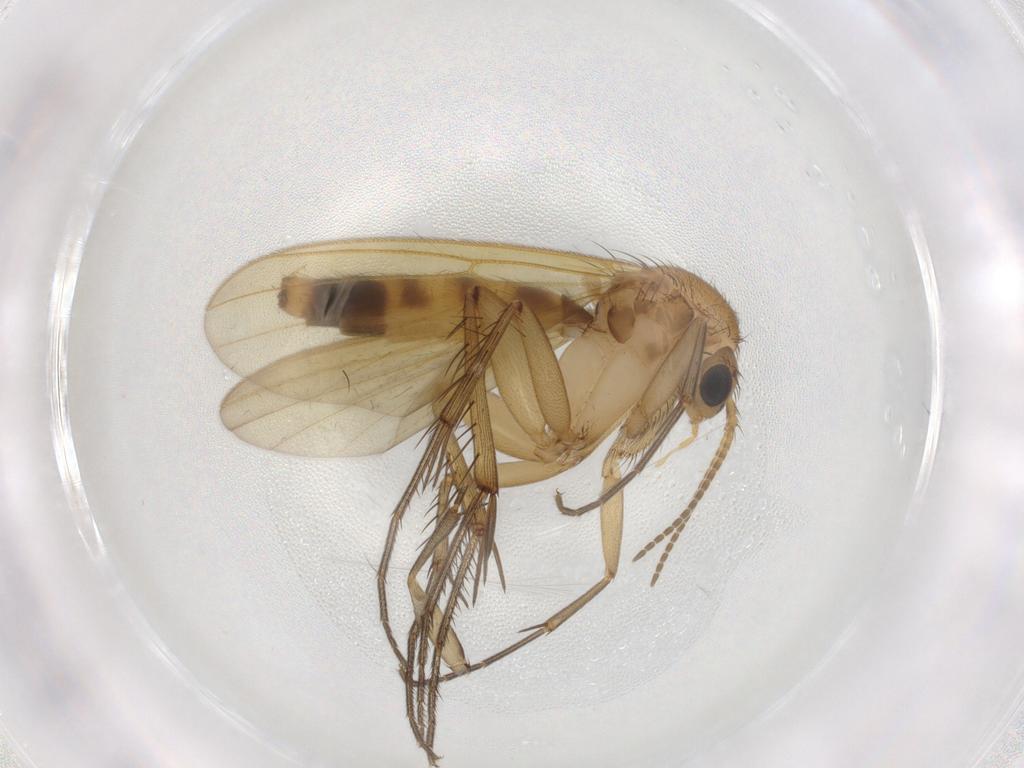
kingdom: Animalia
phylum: Arthropoda
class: Insecta
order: Diptera
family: Mycetophilidae
